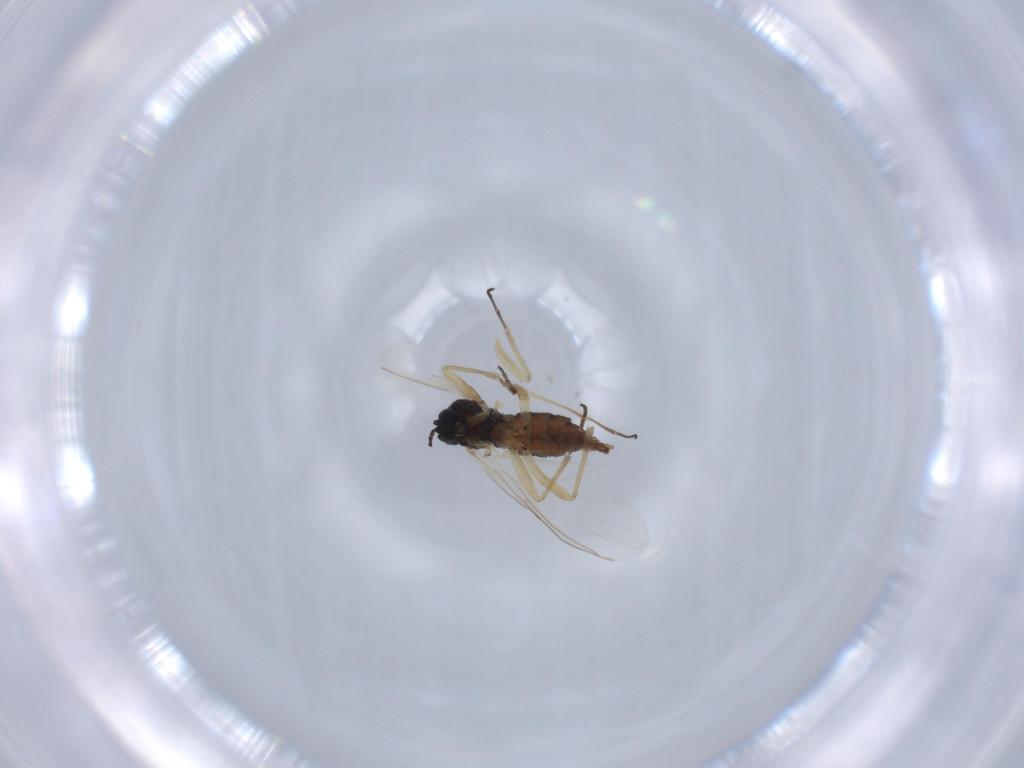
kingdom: Animalia
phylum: Arthropoda
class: Insecta
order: Diptera
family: Sciaridae
